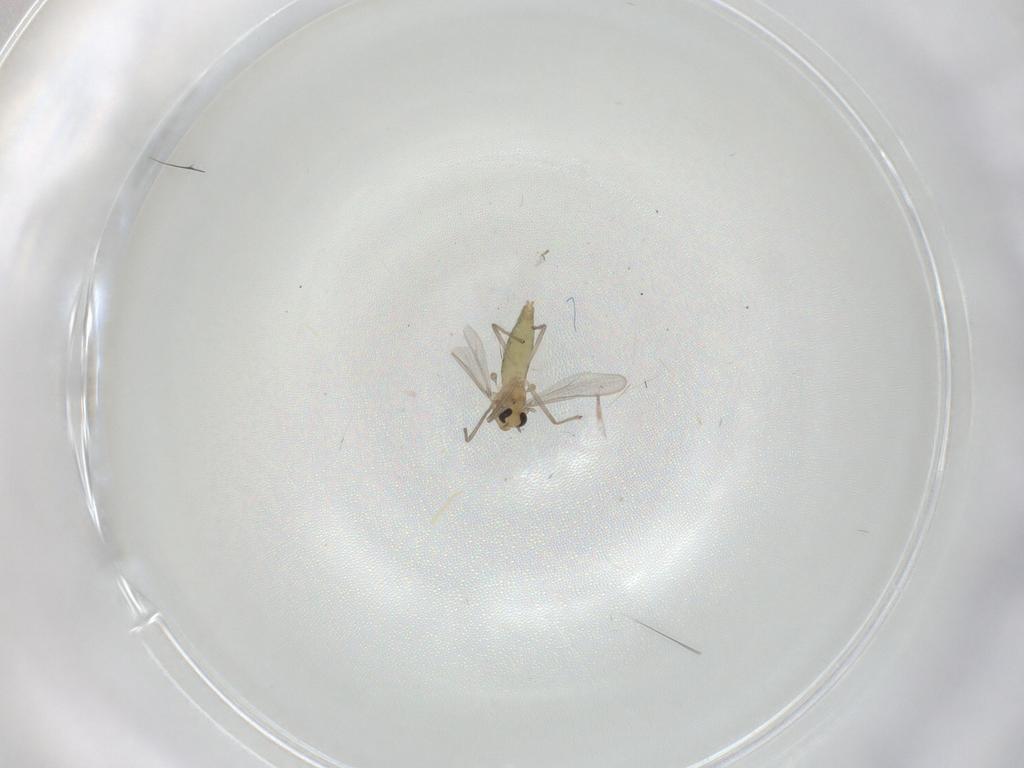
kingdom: Animalia
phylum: Arthropoda
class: Insecta
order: Diptera
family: Chironomidae
